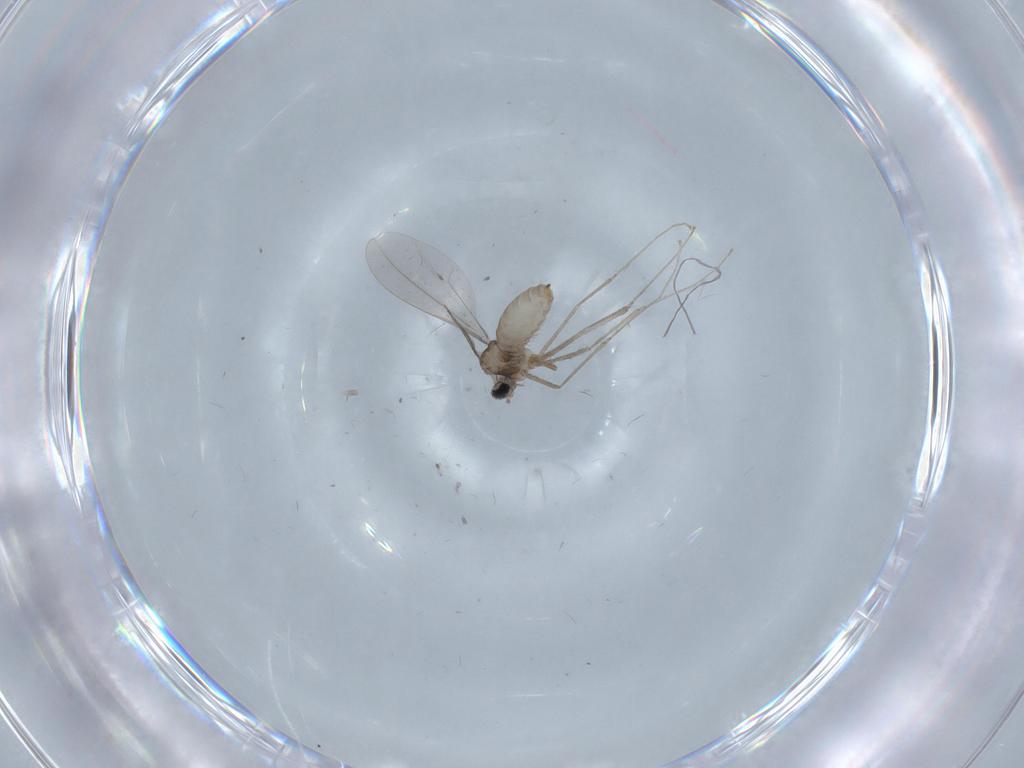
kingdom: Animalia
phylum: Arthropoda
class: Insecta
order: Diptera
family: Cecidomyiidae
